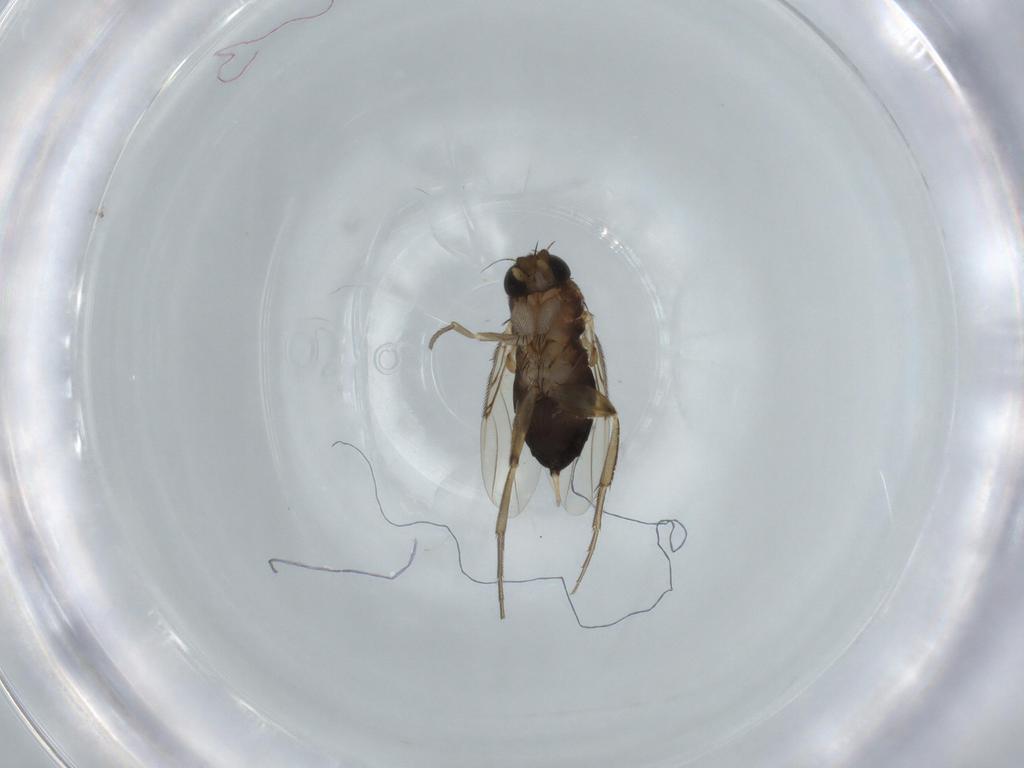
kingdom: Animalia
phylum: Arthropoda
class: Insecta
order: Diptera
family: Phoridae
